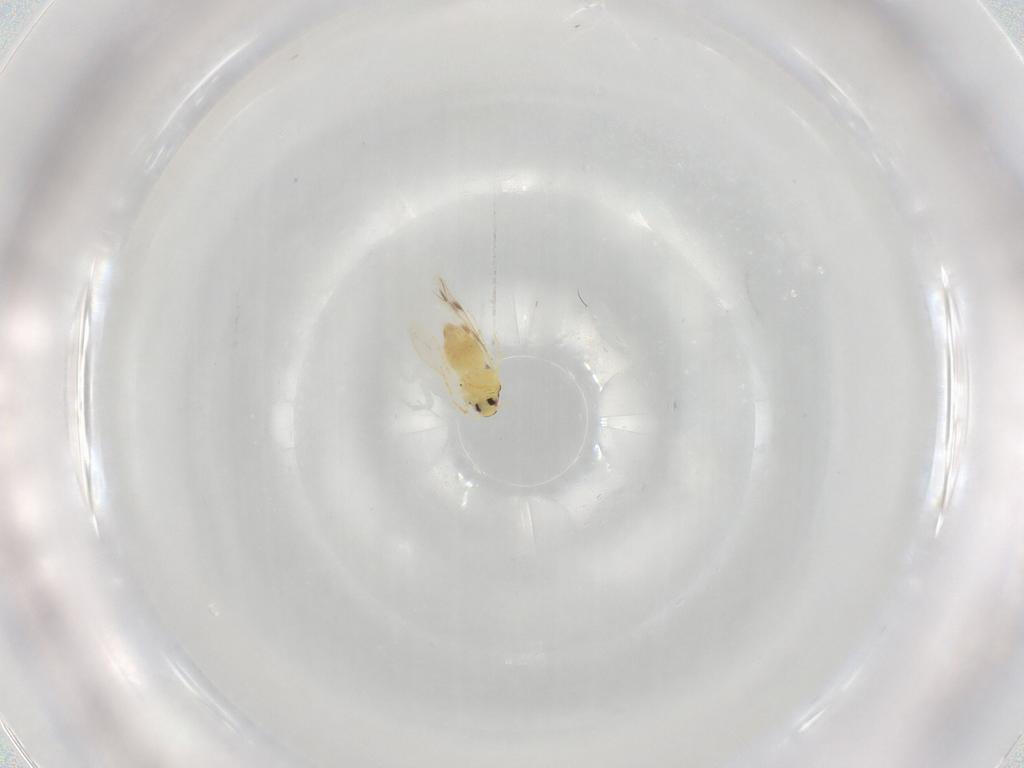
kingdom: Animalia
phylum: Arthropoda
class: Insecta
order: Hemiptera
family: Aleyrodidae
